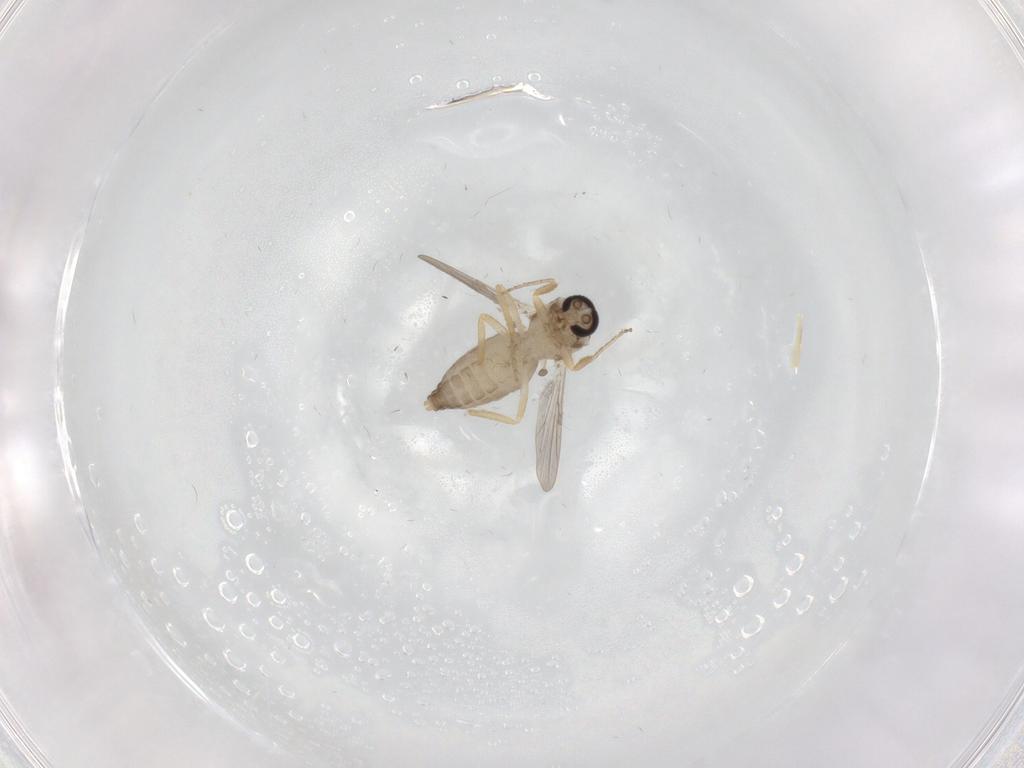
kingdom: Animalia
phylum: Arthropoda
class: Insecta
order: Diptera
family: Ceratopogonidae
